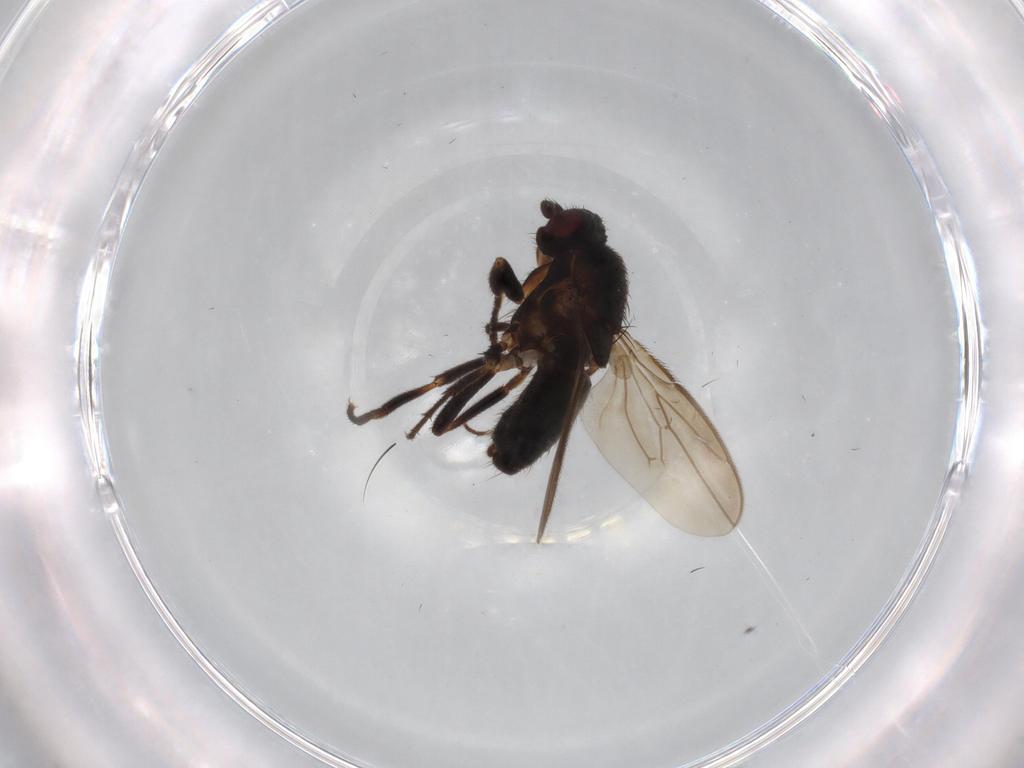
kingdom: Animalia
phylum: Arthropoda
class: Insecta
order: Diptera
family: Sphaeroceridae
